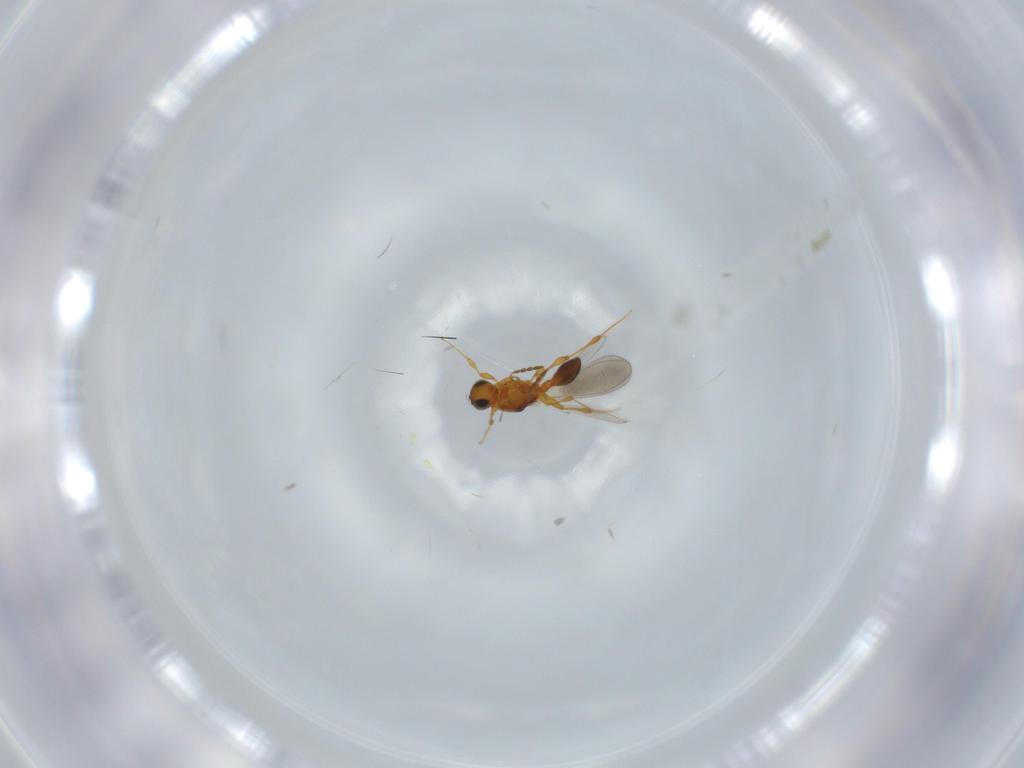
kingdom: Animalia
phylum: Arthropoda
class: Insecta
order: Hymenoptera
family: Platygastridae
